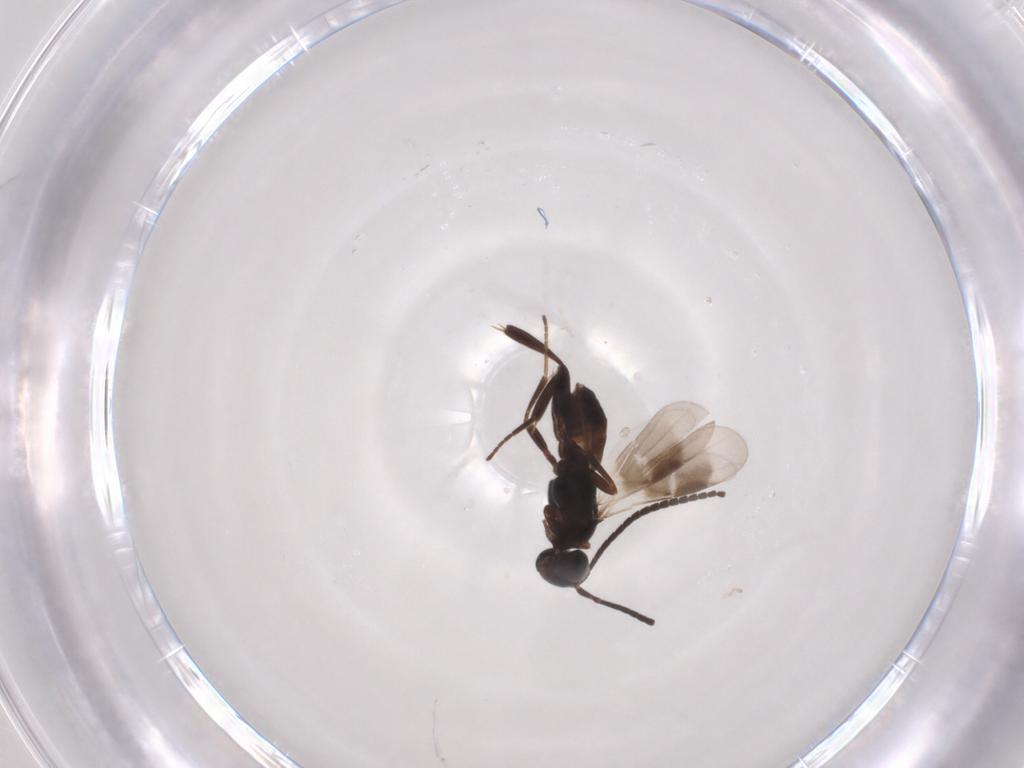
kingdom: Animalia
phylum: Arthropoda
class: Insecta
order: Hymenoptera
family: Braconidae
